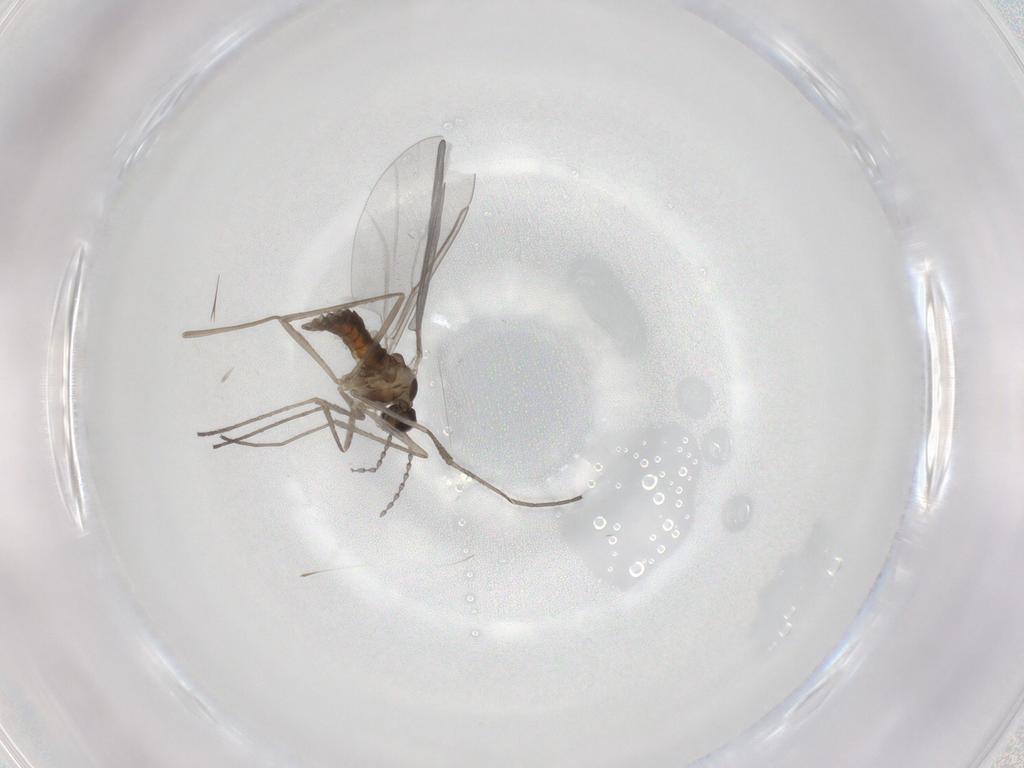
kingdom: Animalia
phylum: Arthropoda
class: Insecta
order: Diptera
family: Cecidomyiidae
